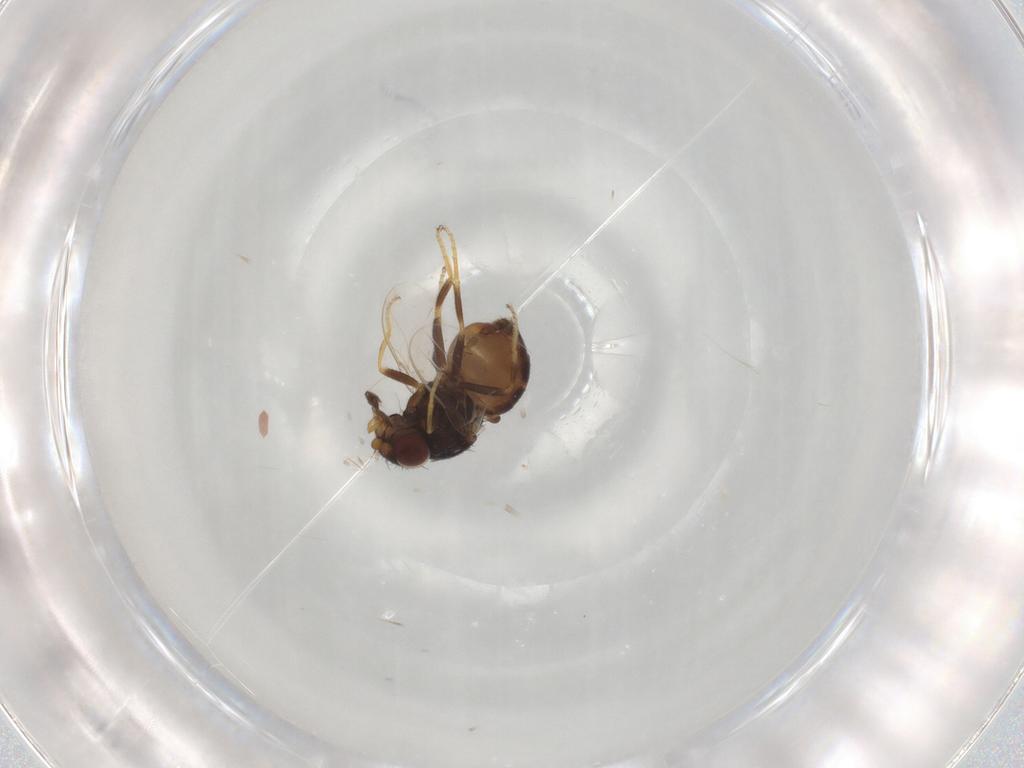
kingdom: Animalia
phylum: Arthropoda
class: Insecta
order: Diptera
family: Chloropidae
